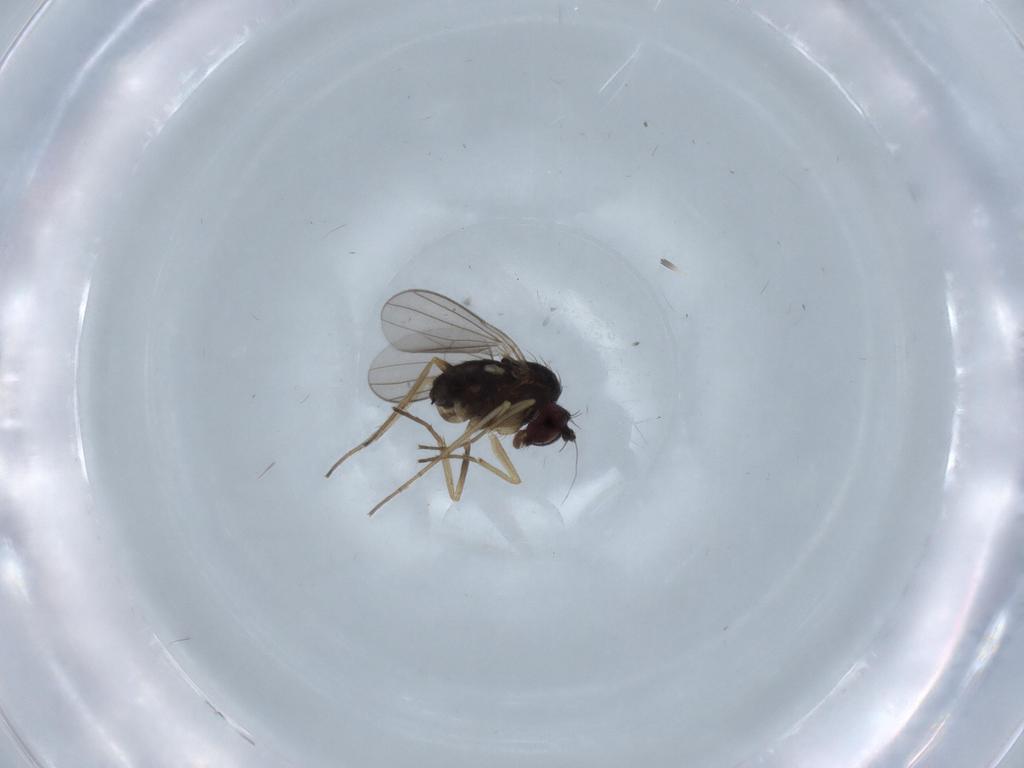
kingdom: Animalia
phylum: Arthropoda
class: Insecta
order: Diptera
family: Dolichopodidae
